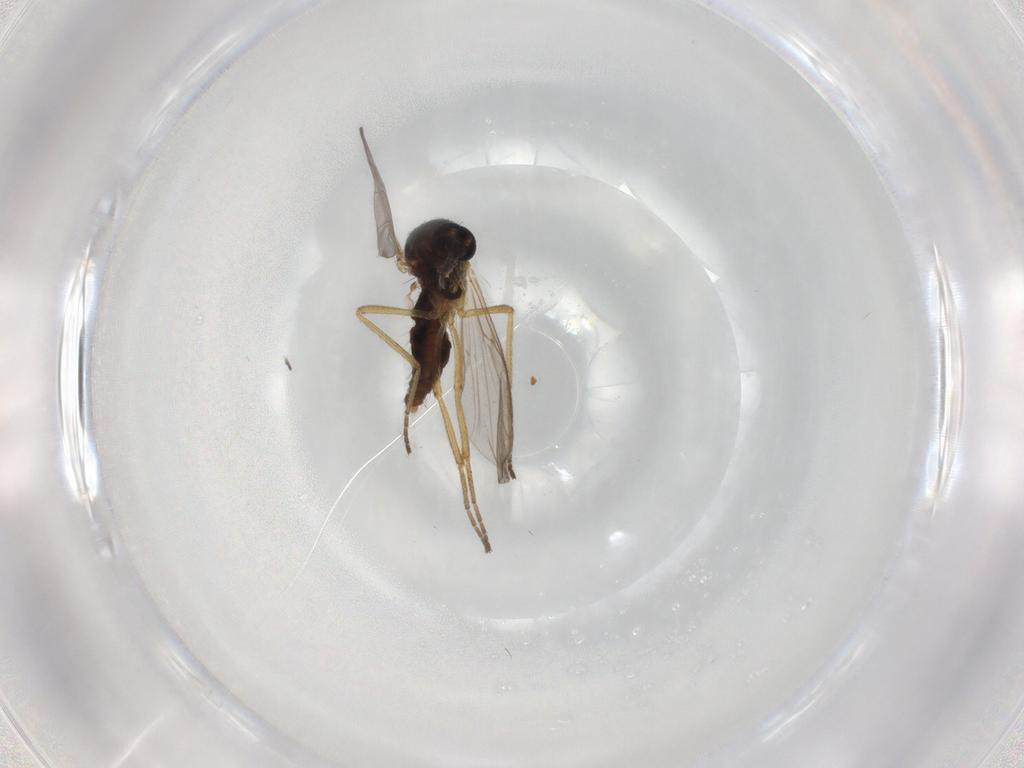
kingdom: Animalia
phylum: Arthropoda
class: Insecta
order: Diptera
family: Ceratopogonidae
